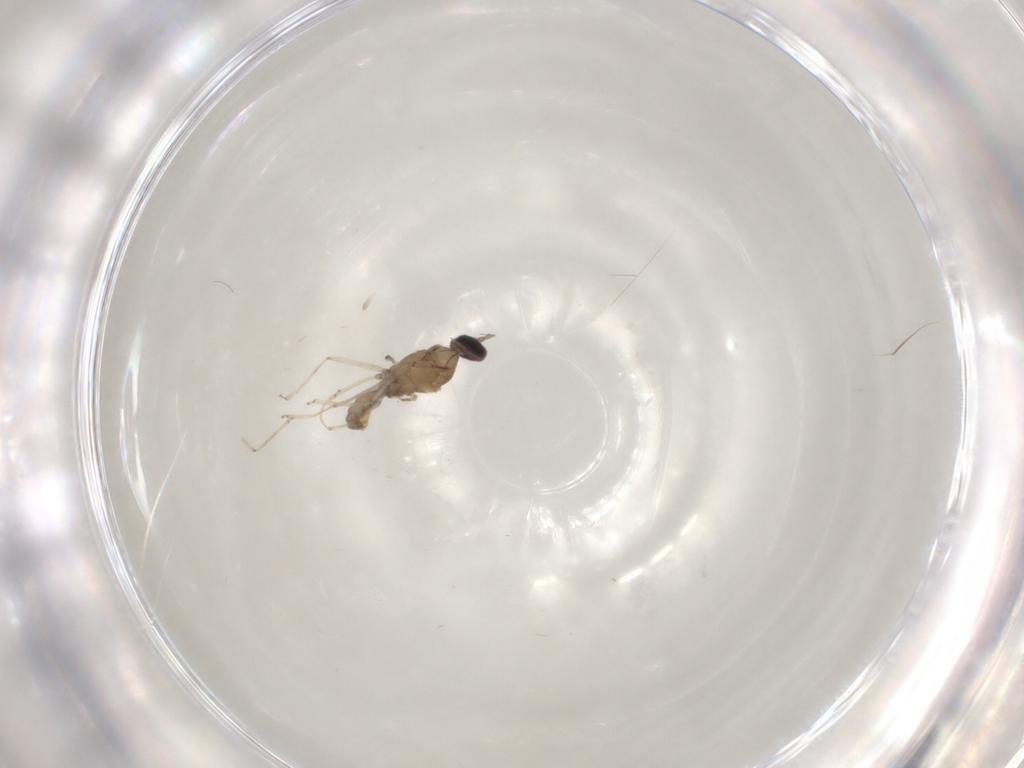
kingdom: Animalia
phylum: Arthropoda
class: Insecta
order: Diptera
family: Cecidomyiidae
